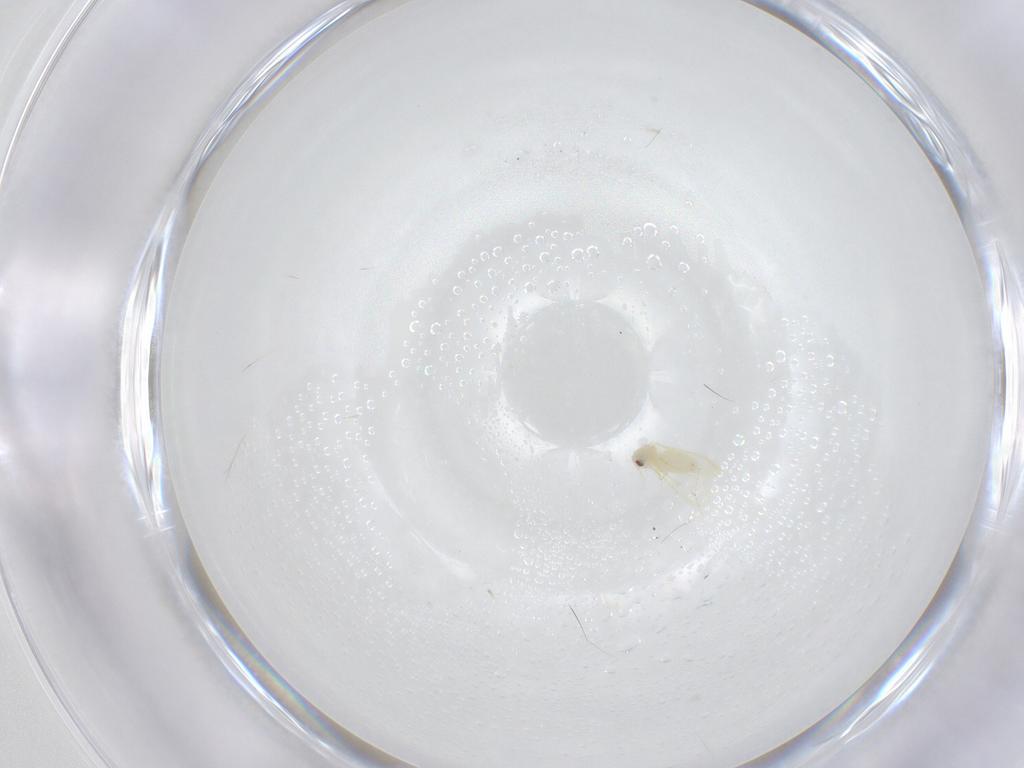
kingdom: Animalia
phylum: Arthropoda
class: Insecta
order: Hemiptera
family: Aleyrodidae
